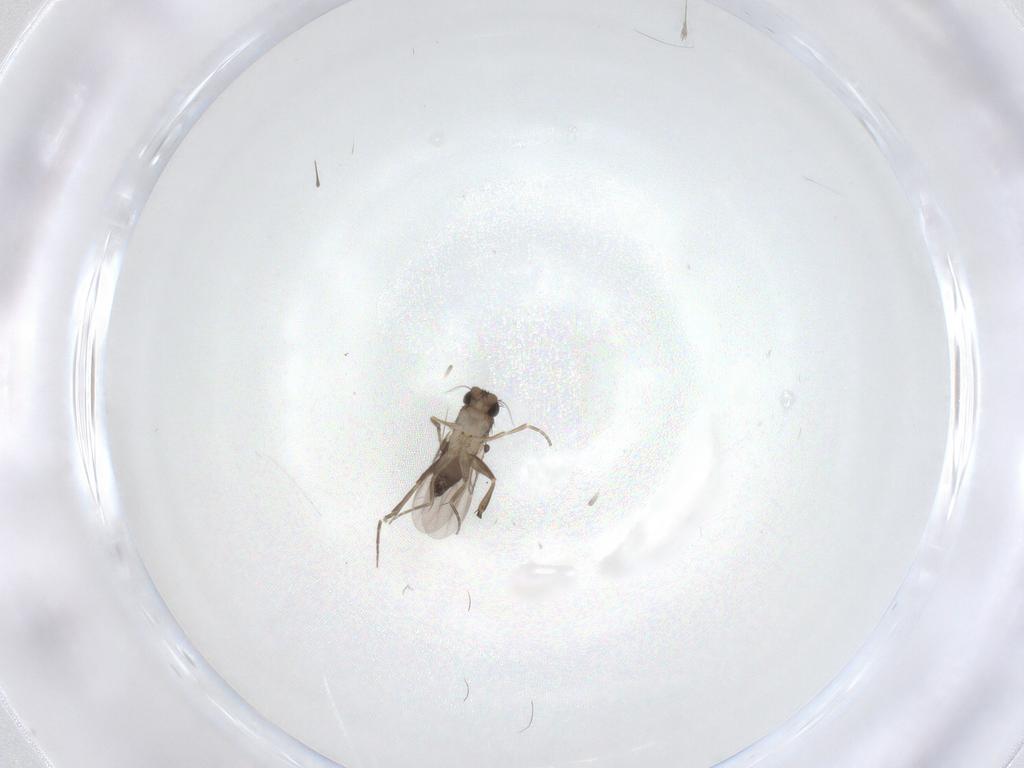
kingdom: Animalia
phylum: Arthropoda
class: Insecta
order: Diptera
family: Phoridae
